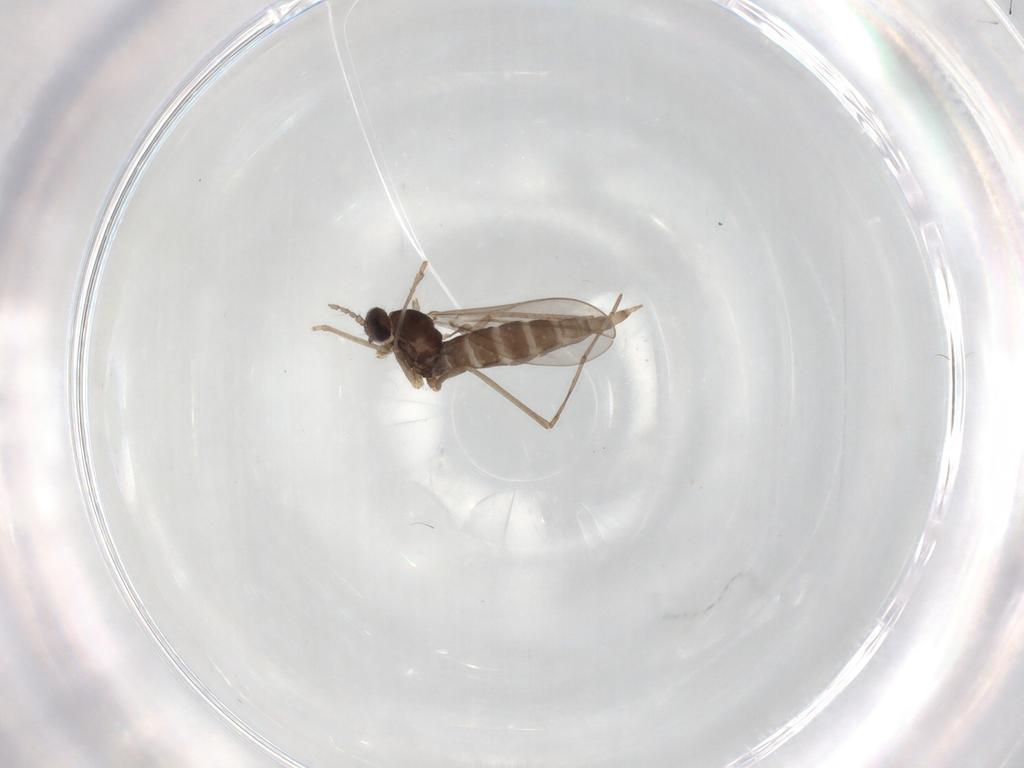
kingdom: Animalia
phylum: Arthropoda
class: Insecta
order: Diptera
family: Cecidomyiidae
